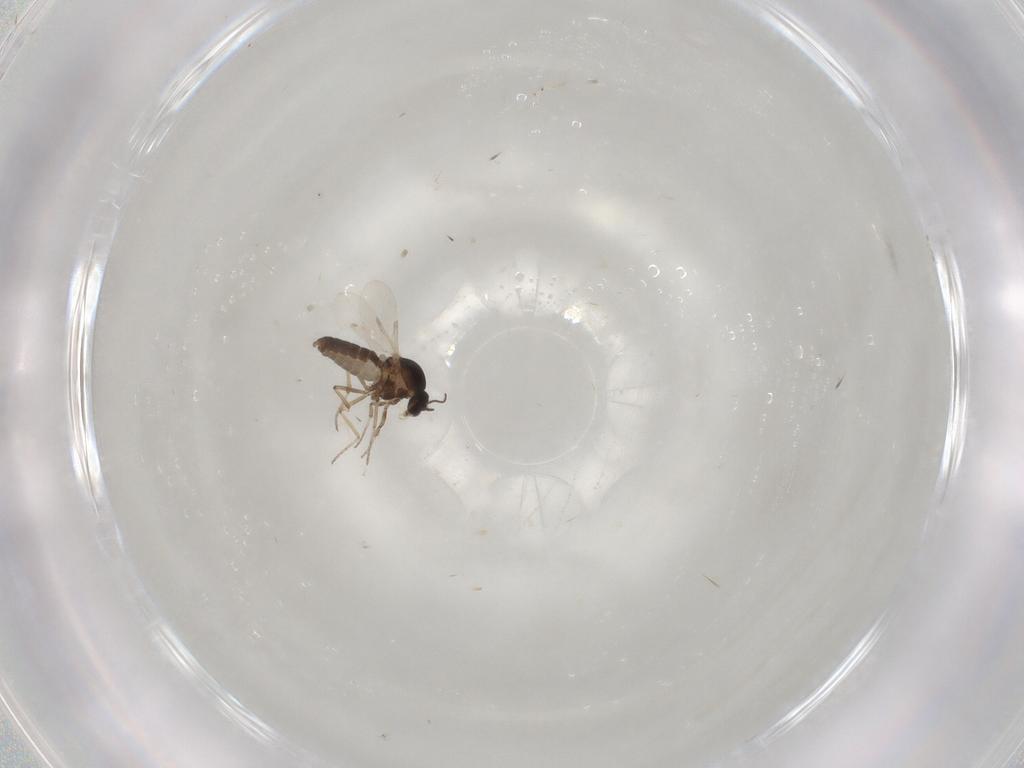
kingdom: Animalia
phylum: Arthropoda
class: Insecta
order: Diptera
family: Ceratopogonidae
